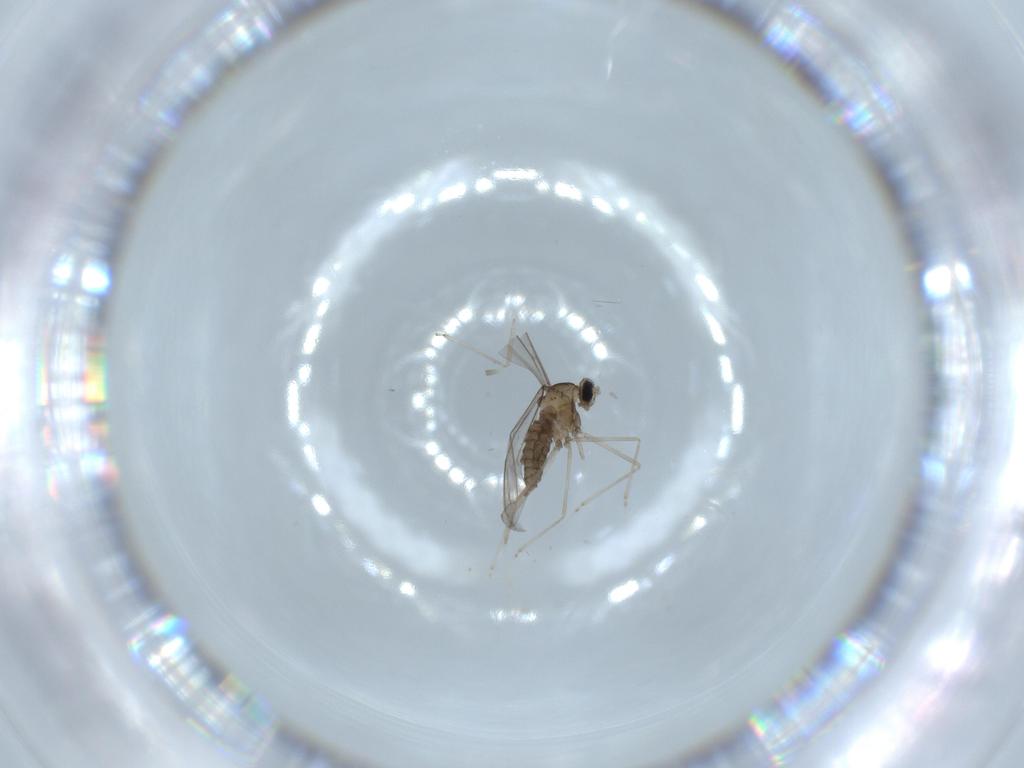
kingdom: Animalia
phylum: Arthropoda
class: Insecta
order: Diptera
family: Cecidomyiidae
